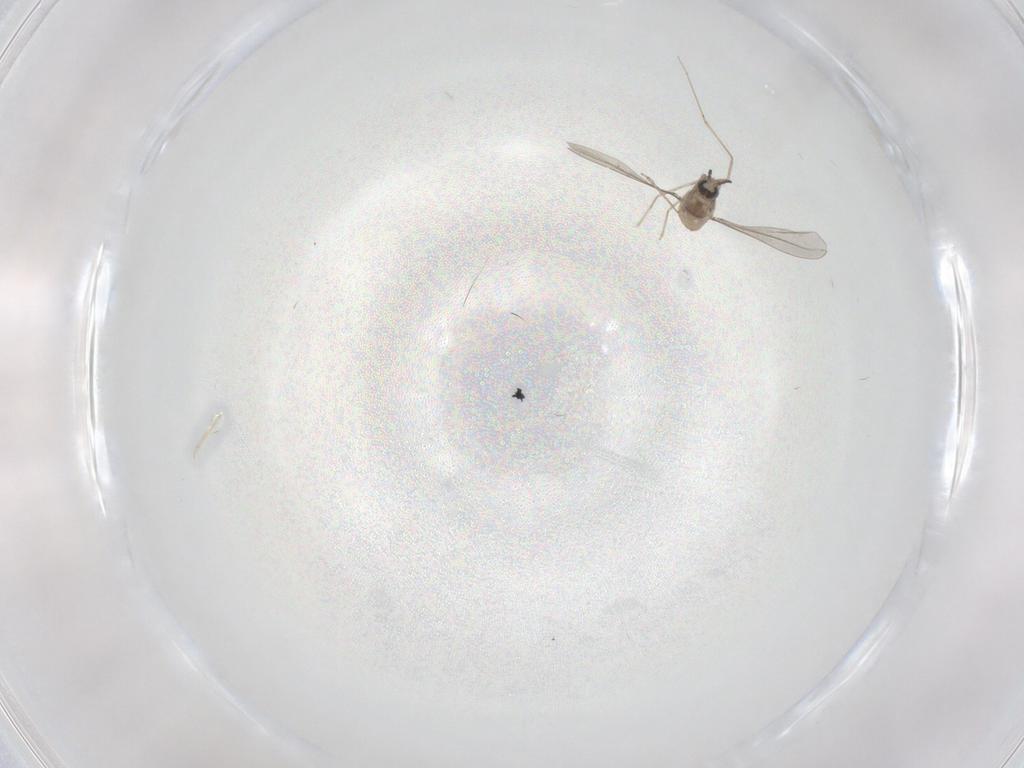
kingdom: Animalia
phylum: Arthropoda
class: Insecta
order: Diptera
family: Cecidomyiidae
